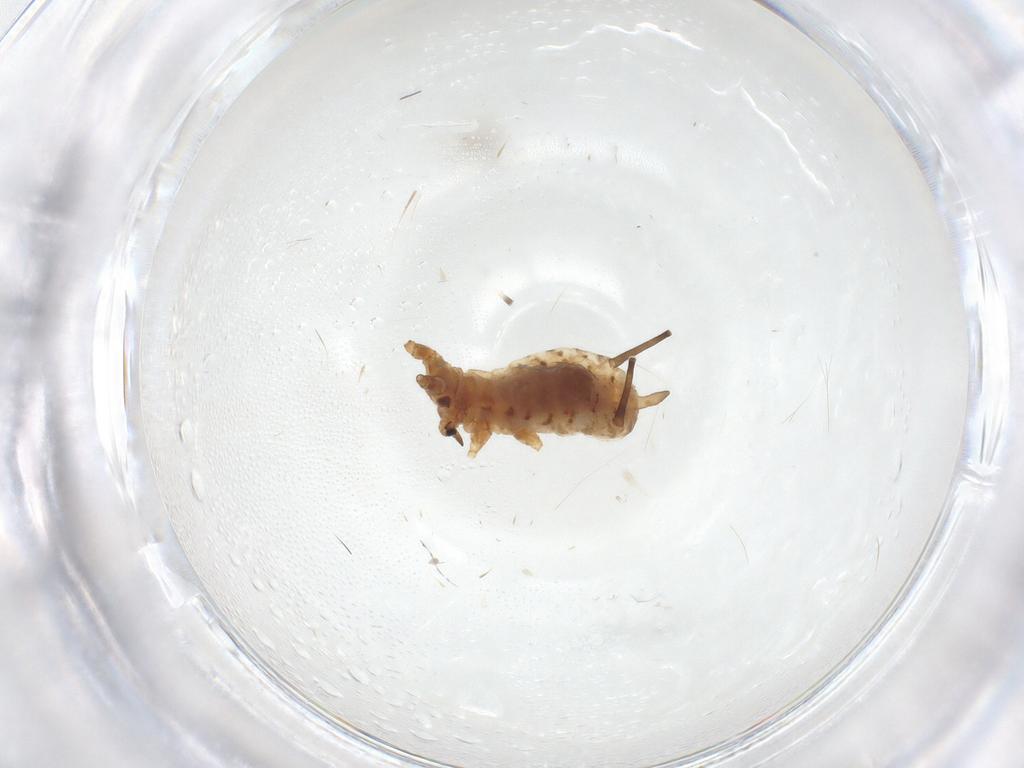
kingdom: Animalia
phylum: Arthropoda
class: Insecta
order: Hemiptera
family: Aphididae
